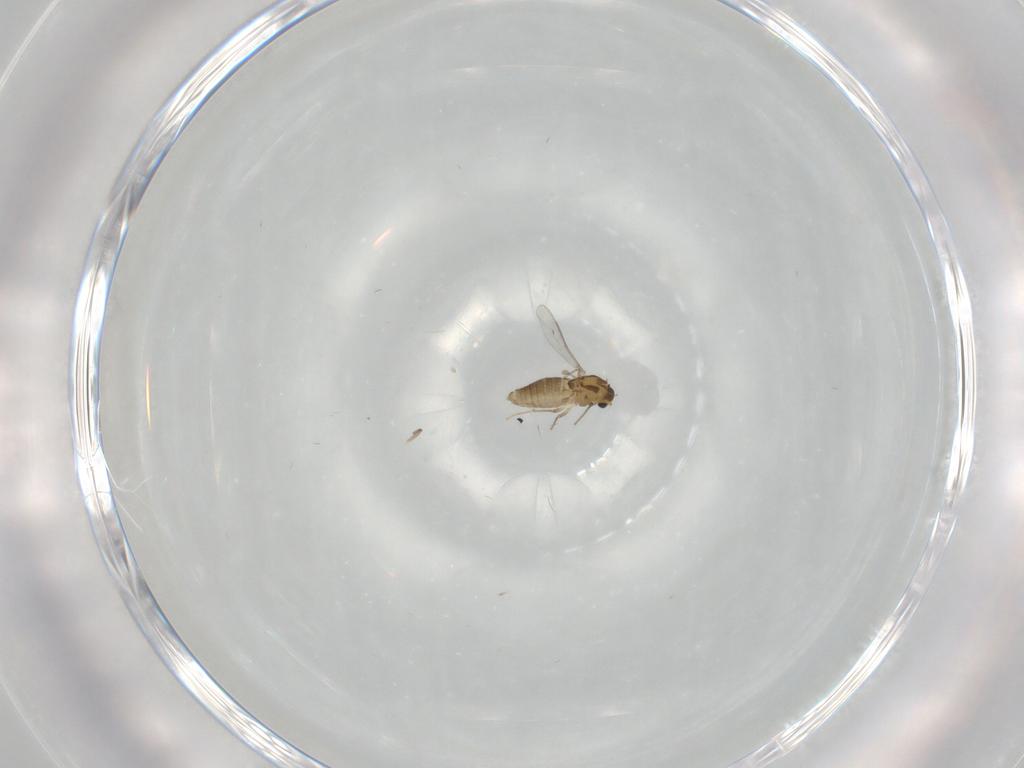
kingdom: Animalia
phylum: Arthropoda
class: Insecta
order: Diptera
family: Chironomidae
